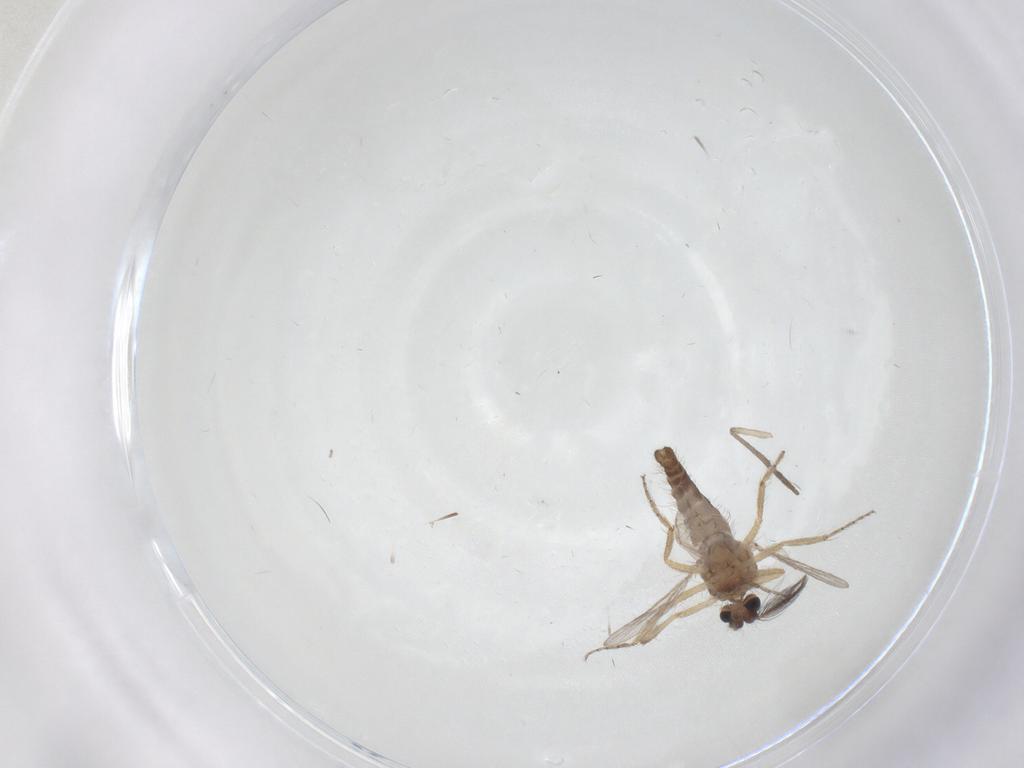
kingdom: Animalia
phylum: Arthropoda
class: Insecta
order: Diptera
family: Ceratopogonidae
